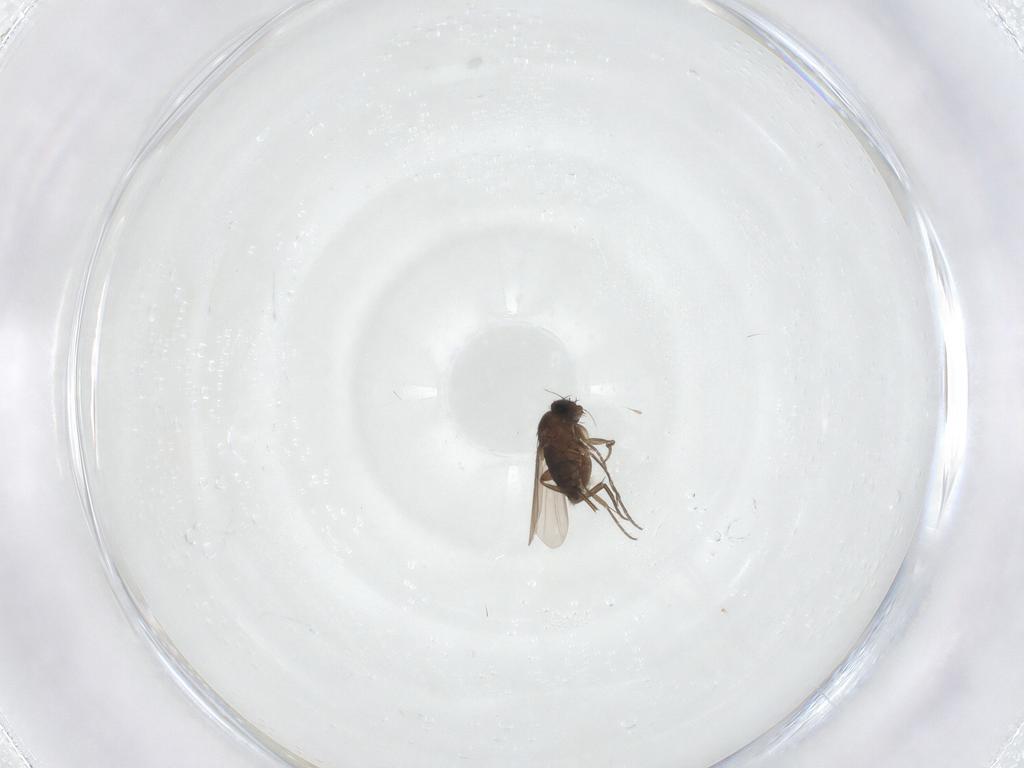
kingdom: Animalia
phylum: Arthropoda
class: Insecta
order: Diptera
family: Phoridae
